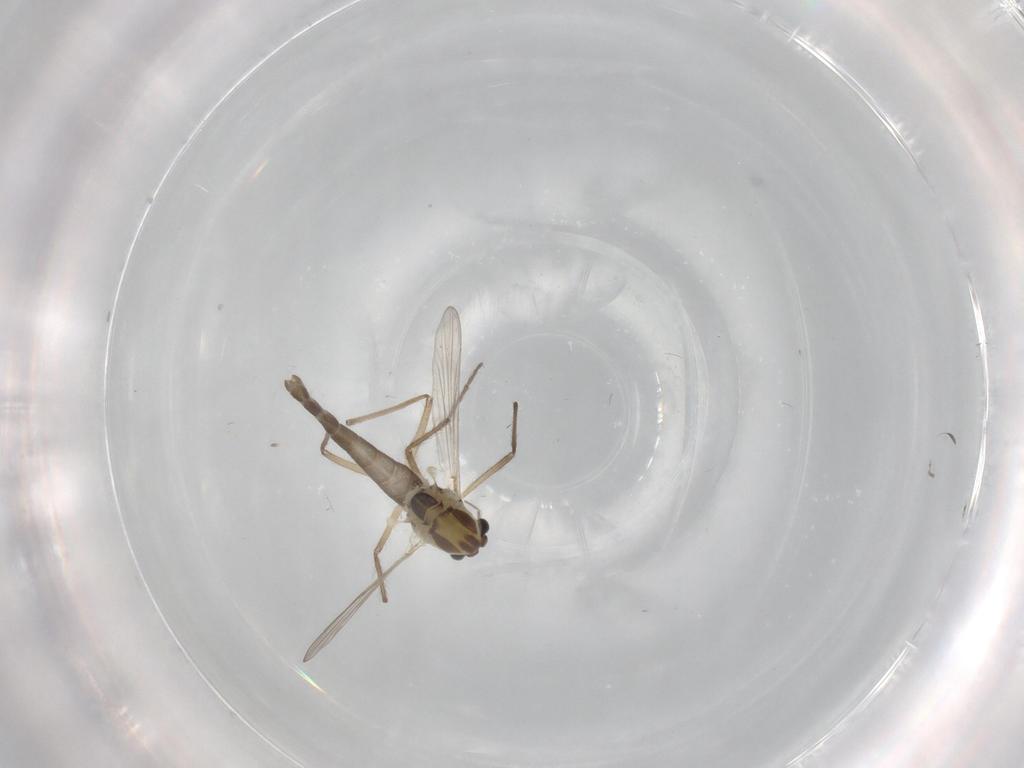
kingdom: Animalia
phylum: Arthropoda
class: Insecta
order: Diptera
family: Chironomidae
